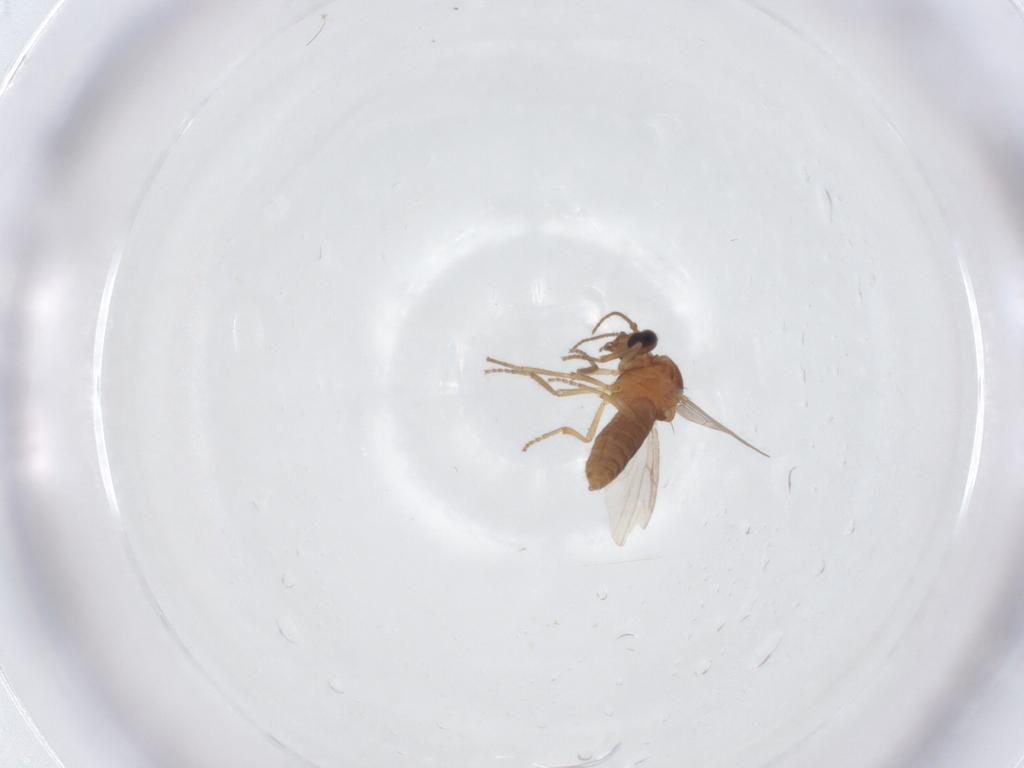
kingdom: Animalia
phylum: Arthropoda
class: Insecta
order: Diptera
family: Ceratopogonidae
